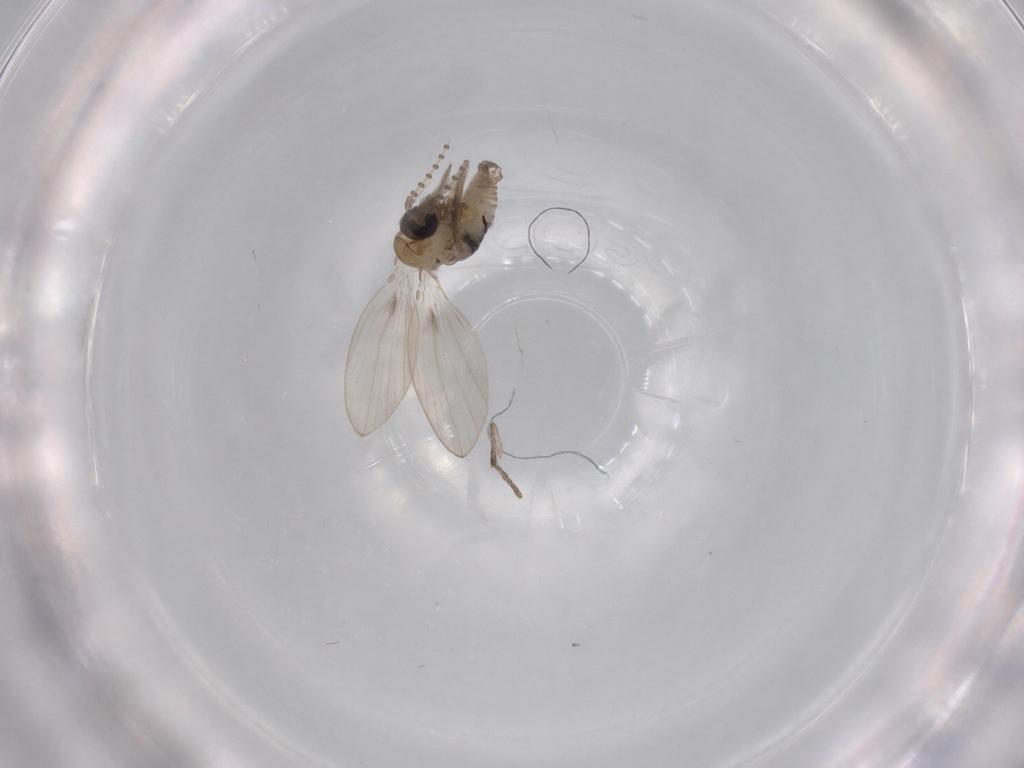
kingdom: Animalia
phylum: Arthropoda
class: Insecta
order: Diptera
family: Psychodidae
